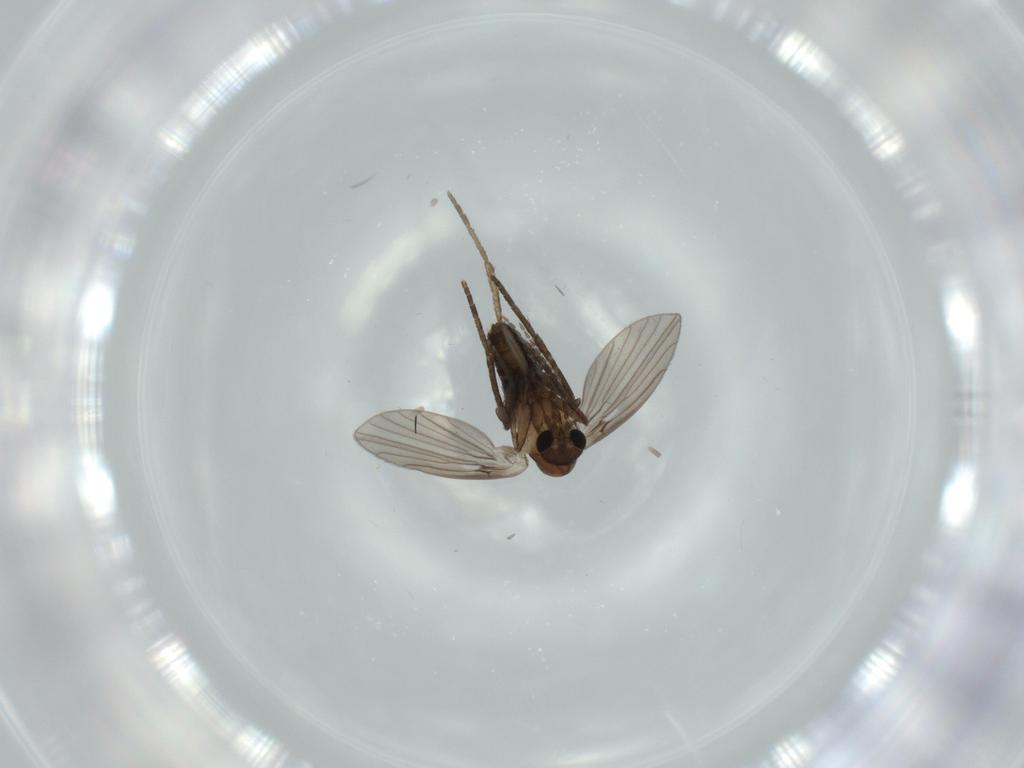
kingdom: Animalia
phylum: Arthropoda
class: Insecta
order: Diptera
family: Psychodidae
